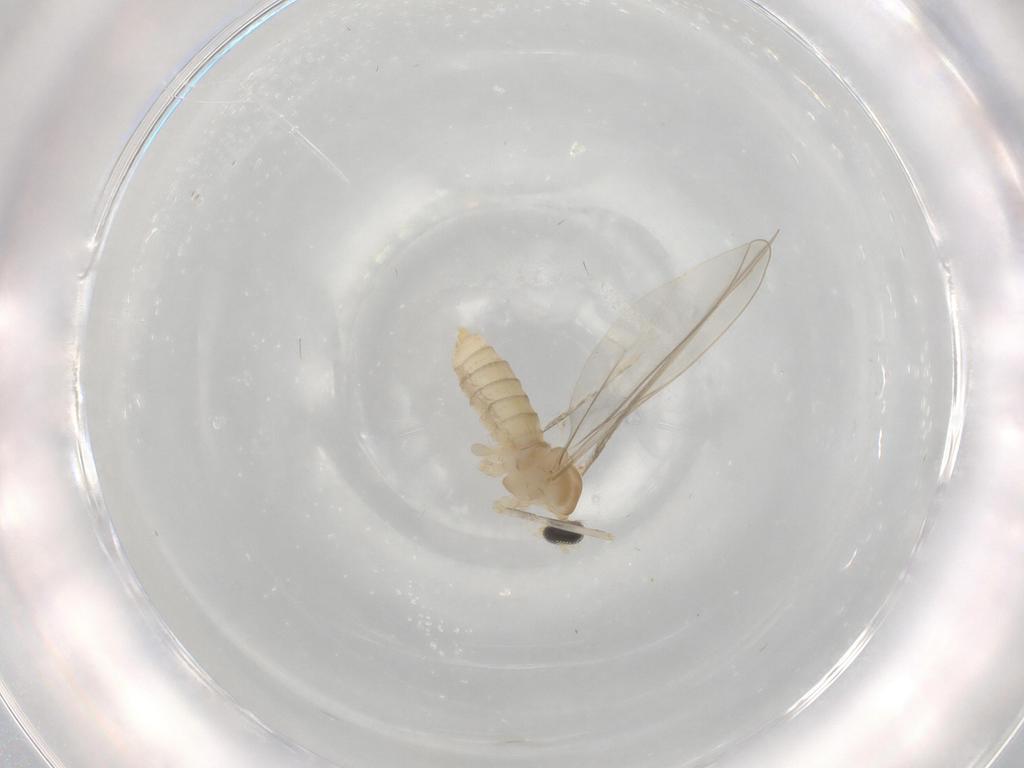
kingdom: Animalia
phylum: Arthropoda
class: Insecta
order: Diptera
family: Cecidomyiidae
